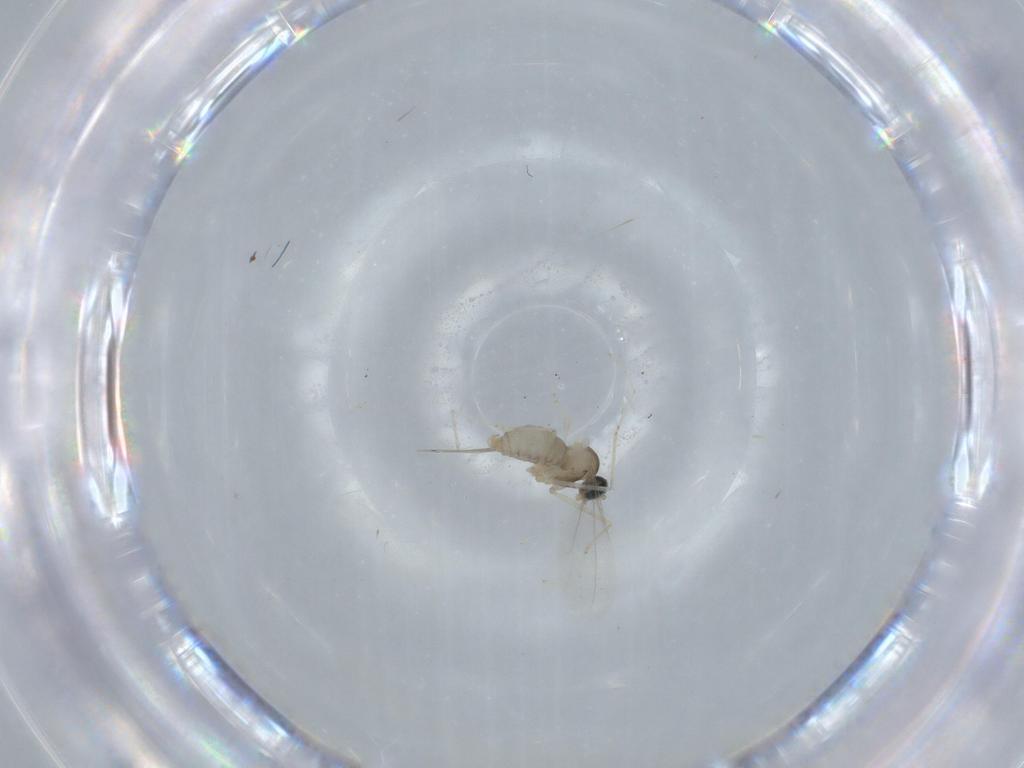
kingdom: Animalia
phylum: Arthropoda
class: Insecta
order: Diptera
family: Cecidomyiidae
